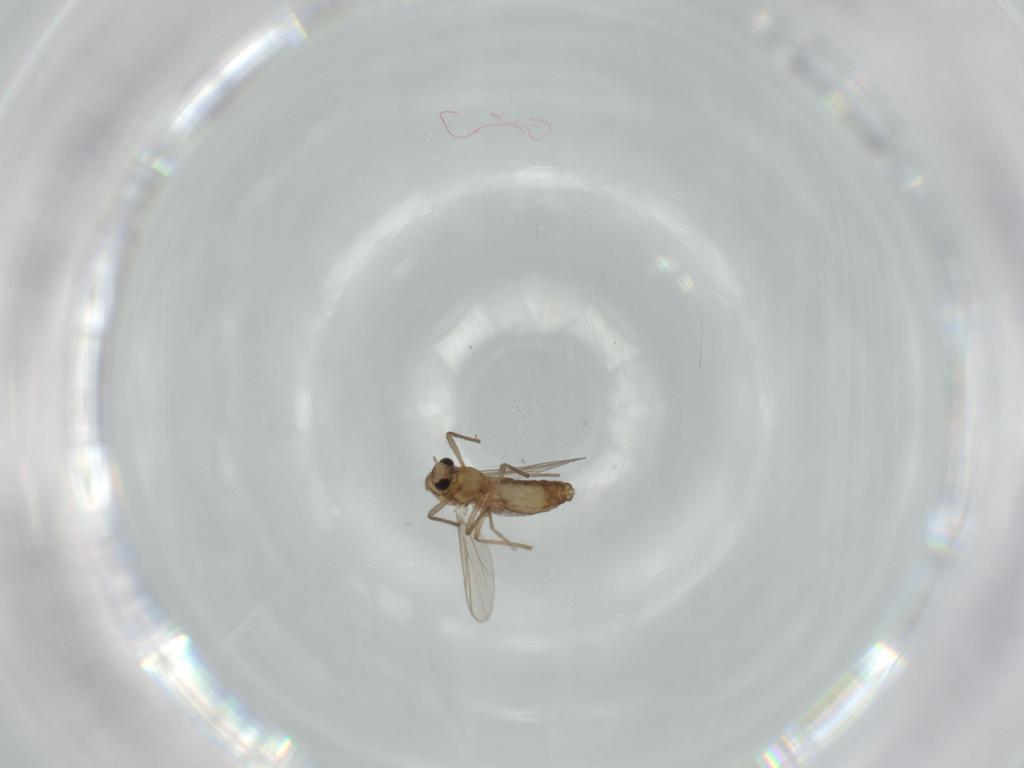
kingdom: Animalia
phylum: Arthropoda
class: Insecta
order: Diptera
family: Chironomidae
